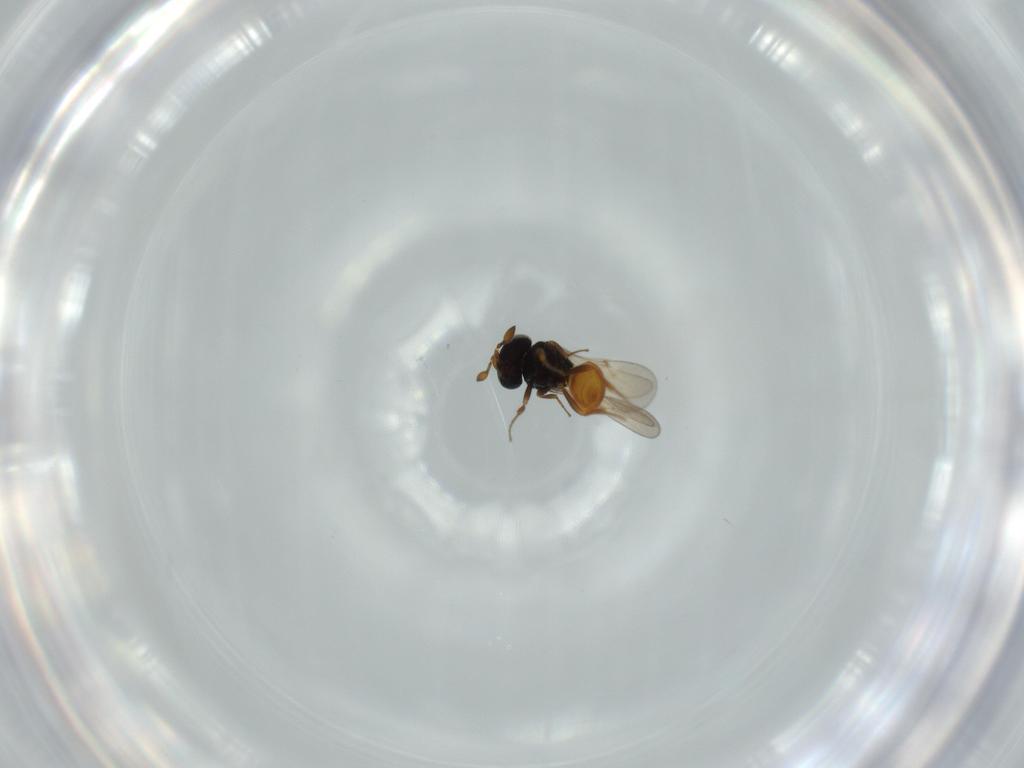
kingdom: Animalia
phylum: Arthropoda
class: Insecta
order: Hymenoptera
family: Scelionidae
